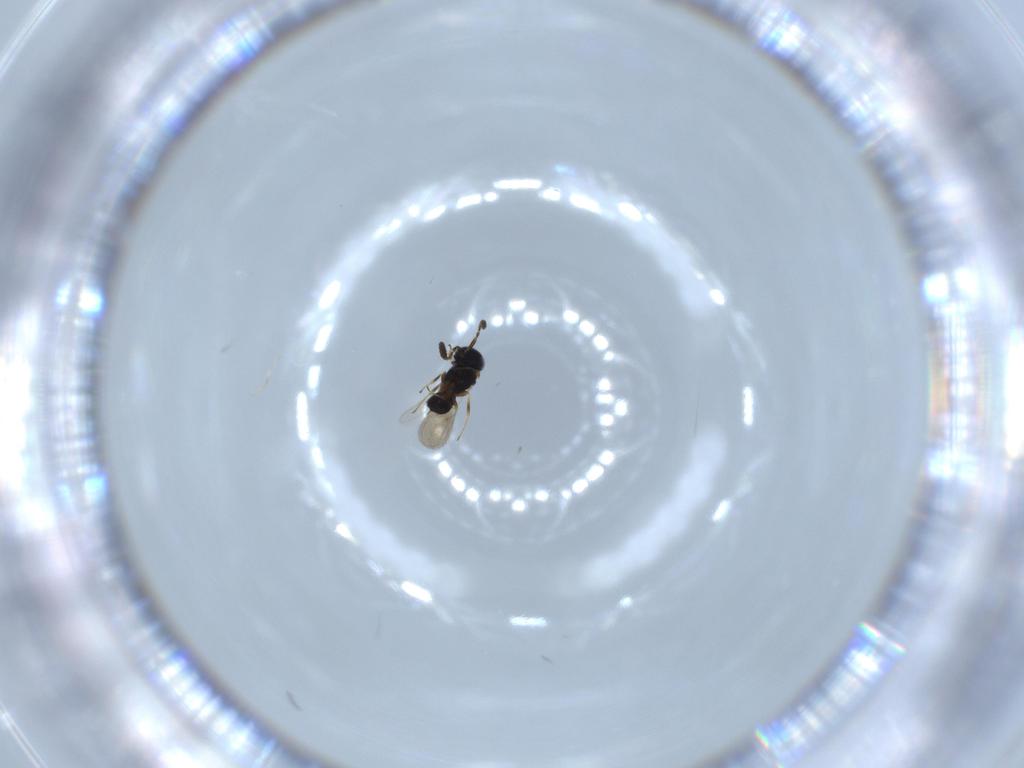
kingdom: Animalia
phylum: Arthropoda
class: Insecta
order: Hymenoptera
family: Scelionidae
